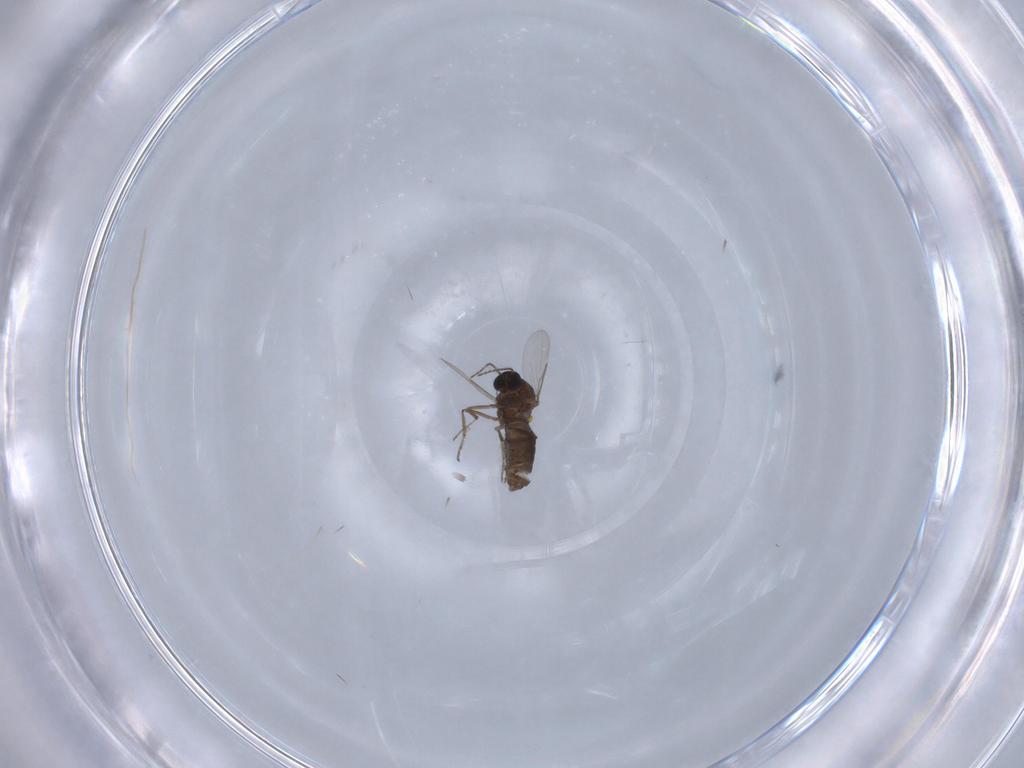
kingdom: Animalia
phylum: Arthropoda
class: Insecta
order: Diptera
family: Ceratopogonidae
